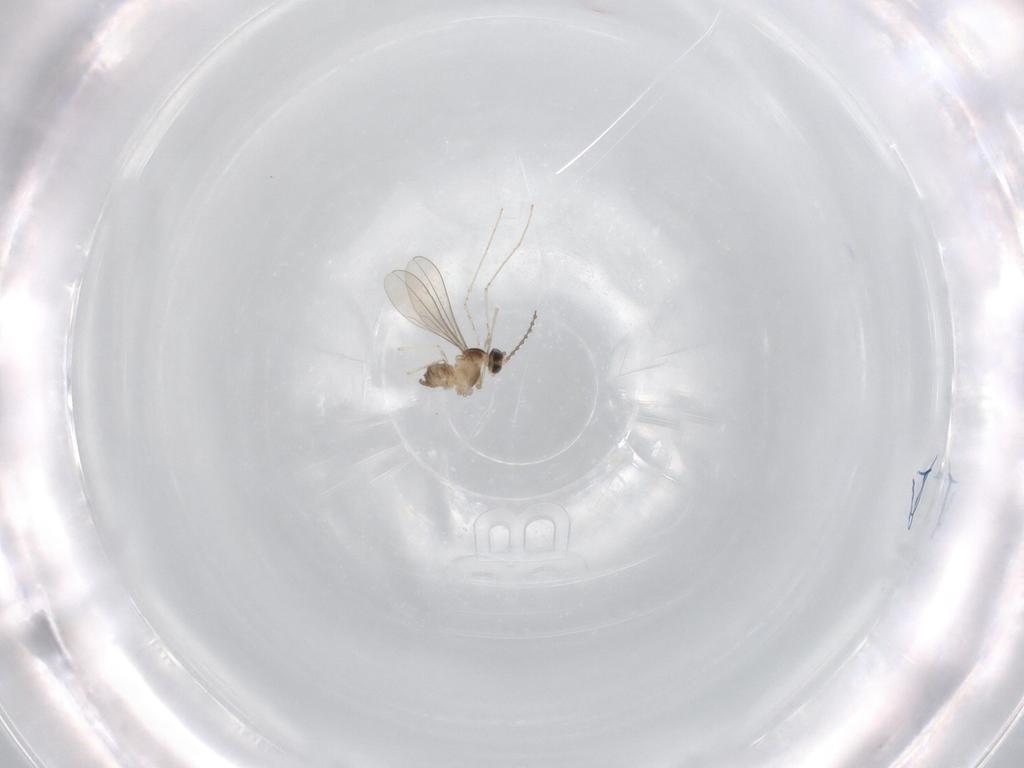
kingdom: Animalia
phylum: Arthropoda
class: Insecta
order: Diptera
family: Cecidomyiidae
